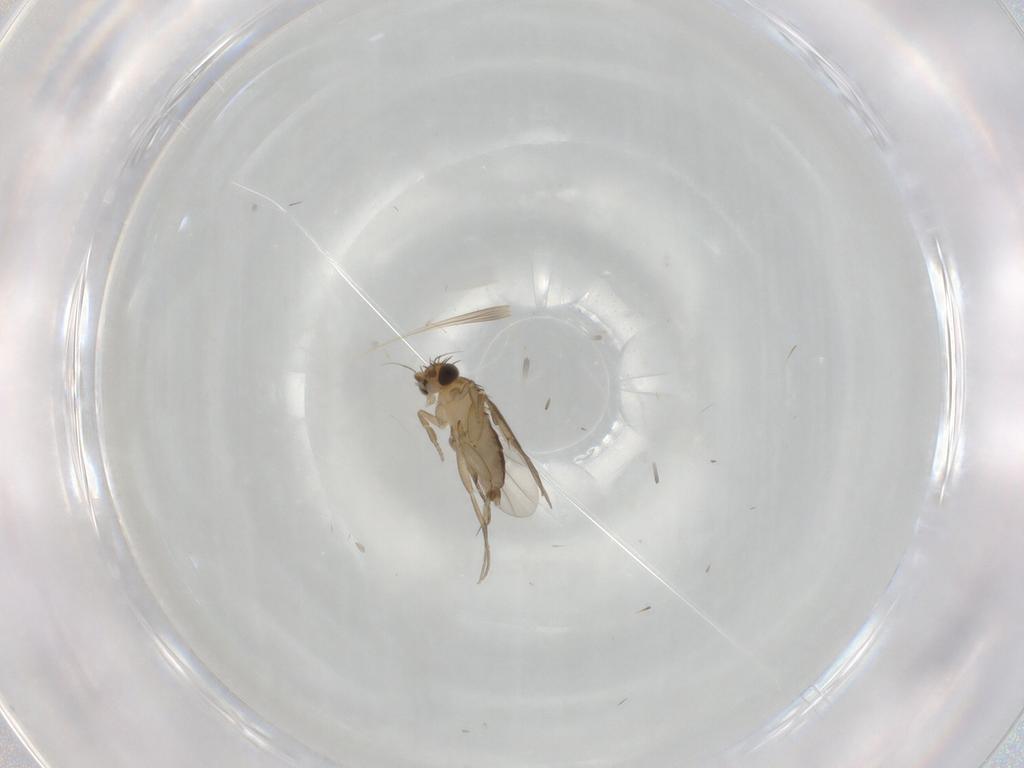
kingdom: Animalia
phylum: Arthropoda
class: Insecta
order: Diptera
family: Phoridae
